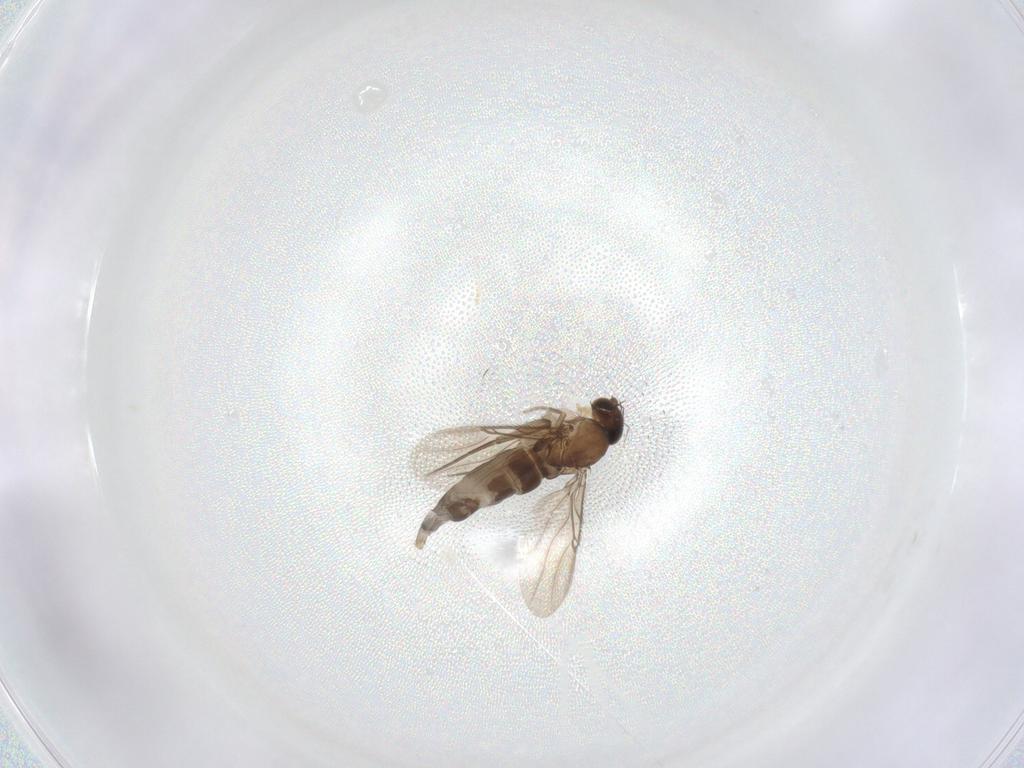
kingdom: Animalia
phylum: Arthropoda
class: Insecta
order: Diptera
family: Phoridae
